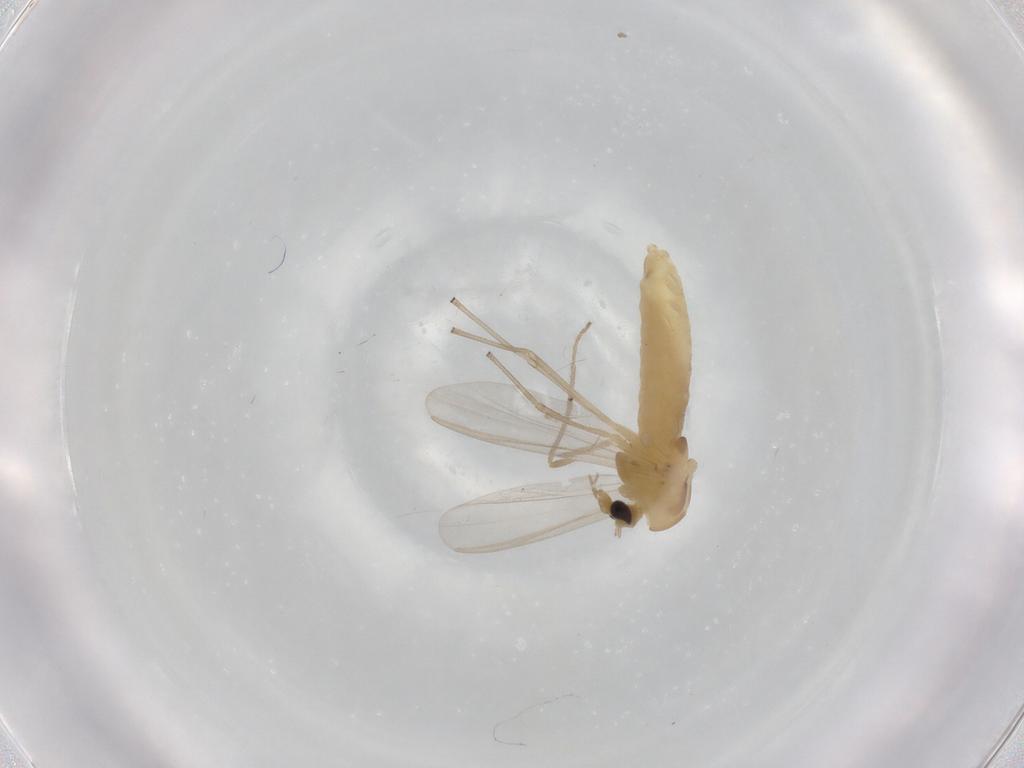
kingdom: Animalia
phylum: Arthropoda
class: Insecta
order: Diptera
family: Chironomidae
